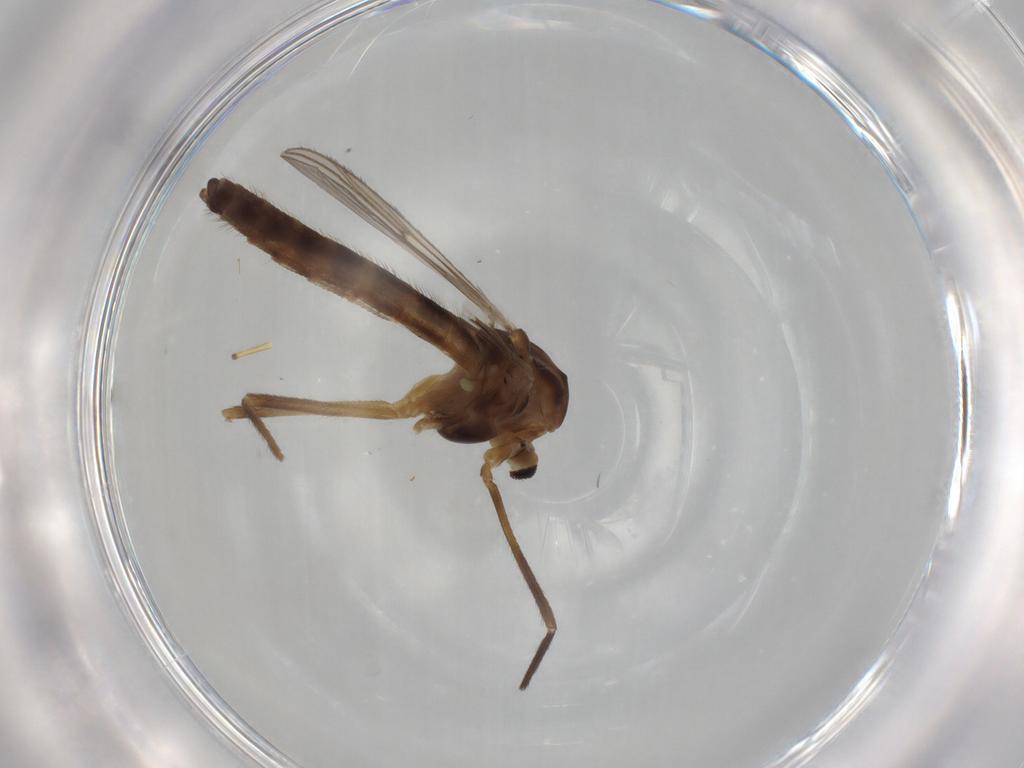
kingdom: Animalia
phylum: Arthropoda
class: Insecta
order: Diptera
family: Chironomidae
